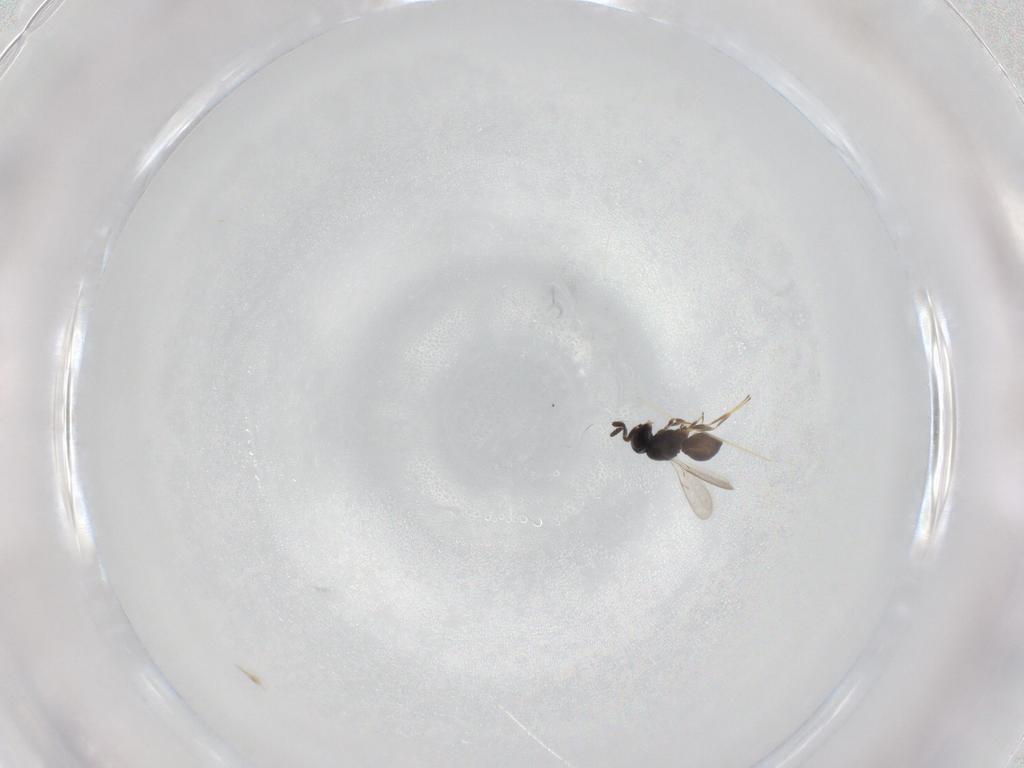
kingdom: Animalia
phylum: Arthropoda
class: Insecta
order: Hymenoptera
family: Scelionidae
